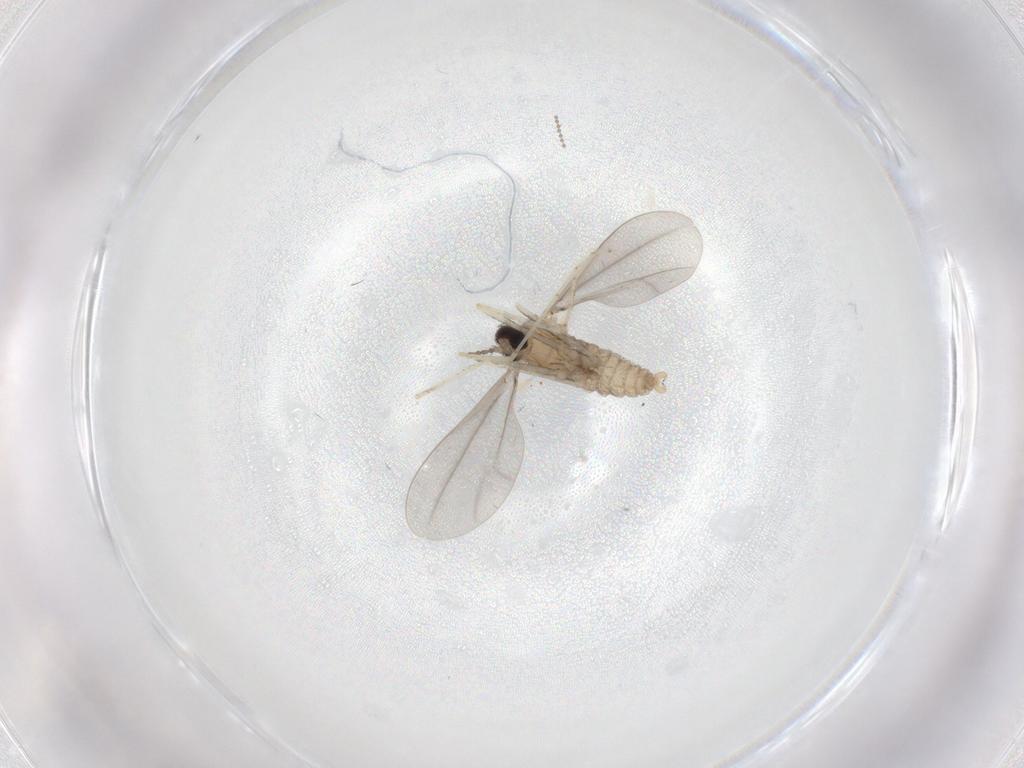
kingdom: Animalia
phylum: Arthropoda
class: Insecta
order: Diptera
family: Cecidomyiidae
